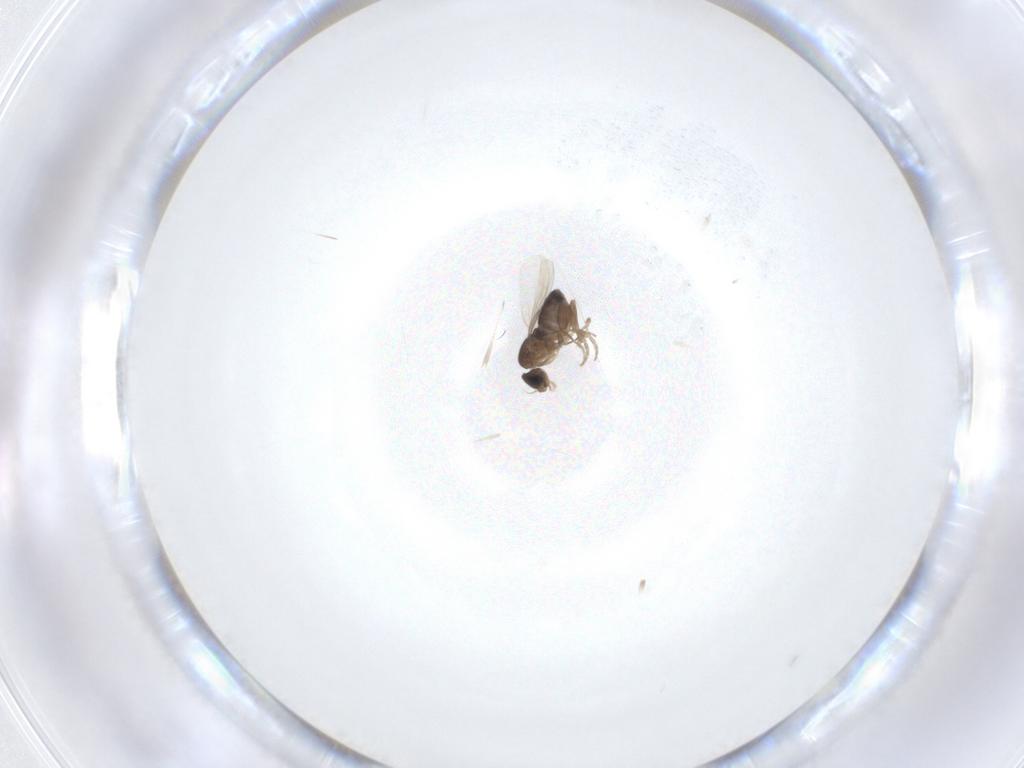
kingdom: Animalia
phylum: Arthropoda
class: Insecta
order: Diptera
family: Phoridae
